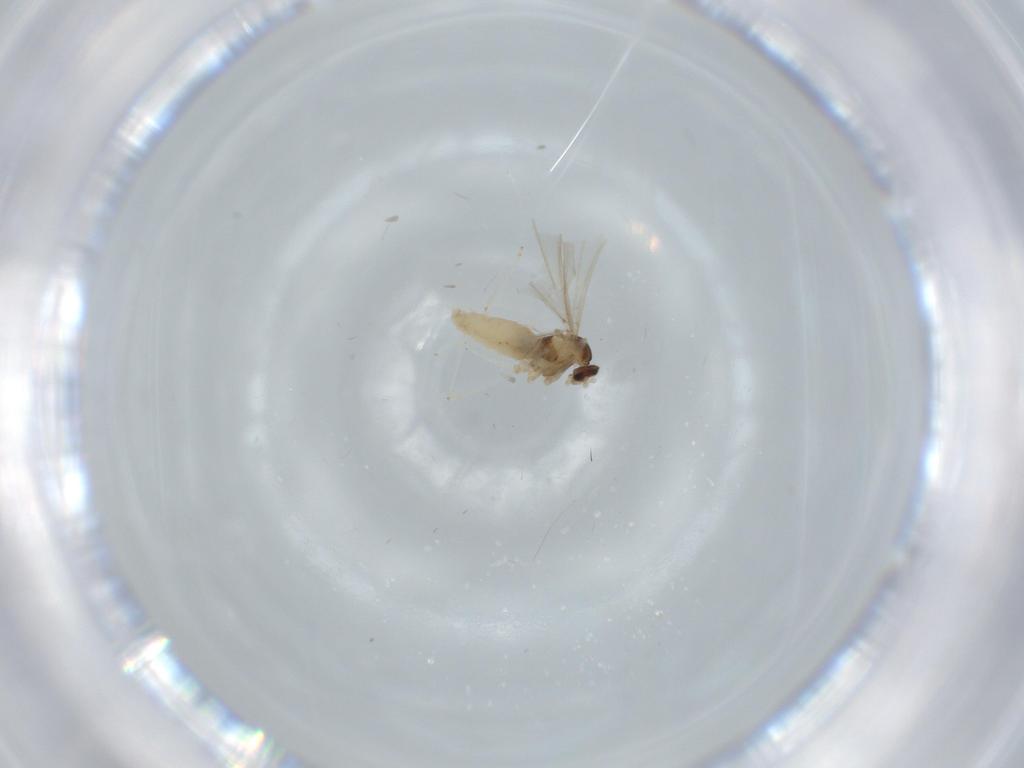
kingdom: Animalia
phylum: Arthropoda
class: Insecta
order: Diptera
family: Cecidomyiidae
